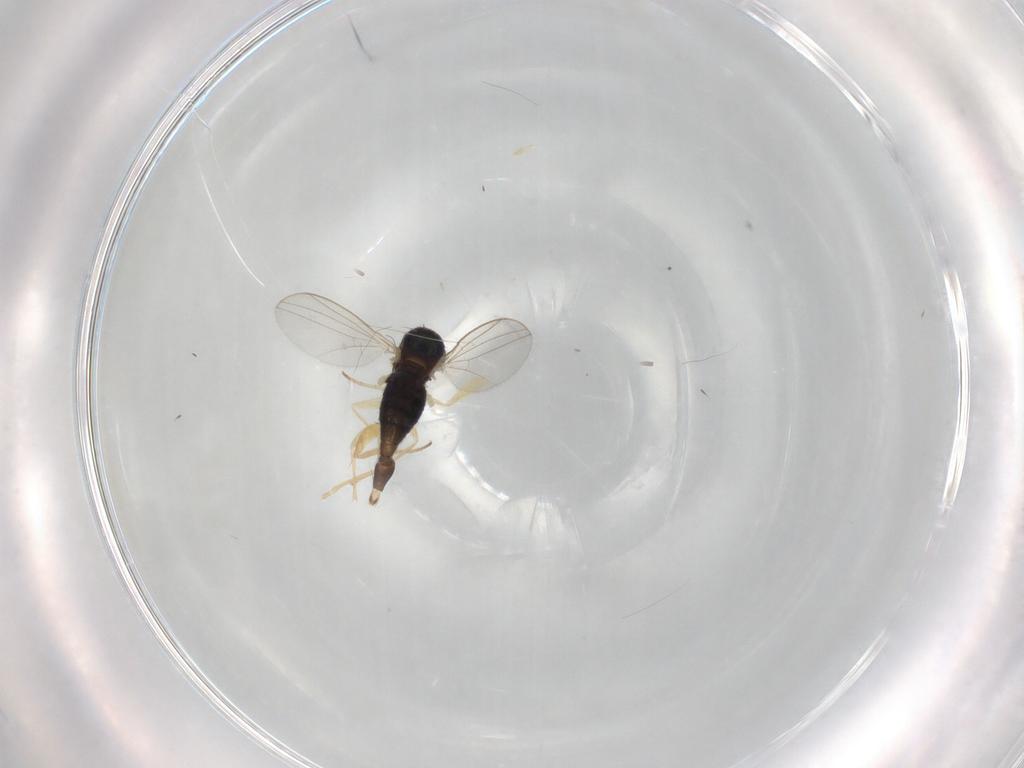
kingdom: Animalia
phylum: Arthropoda
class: Insecta
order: Diptera
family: Dolichopodidae
